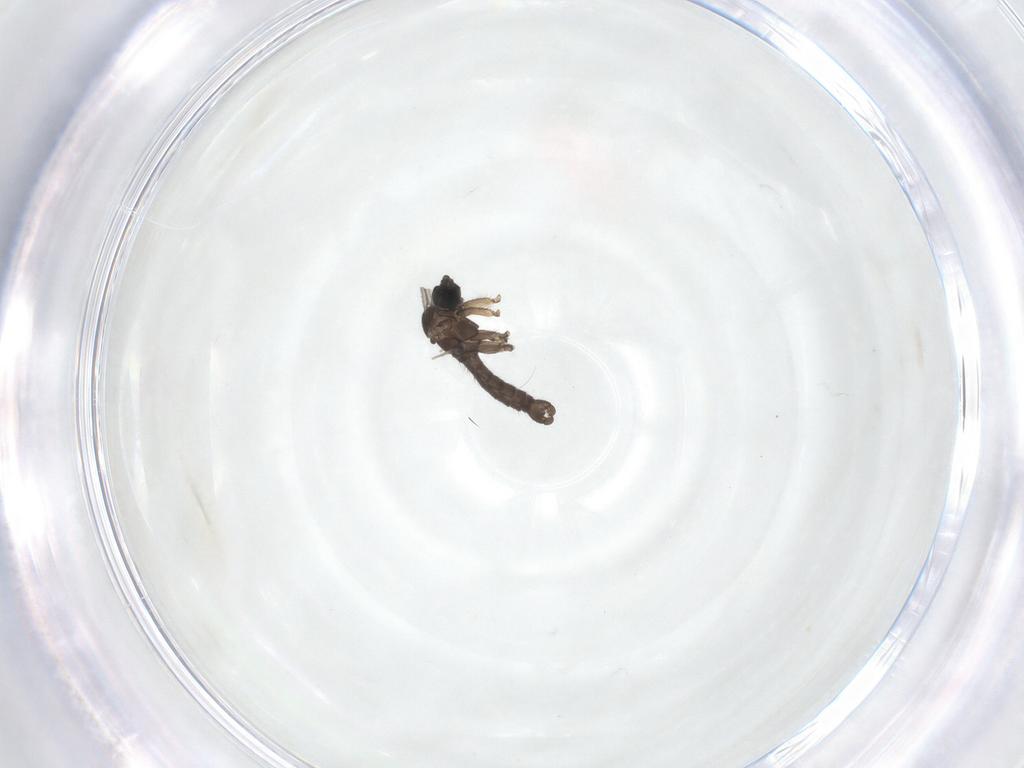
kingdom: Animalia
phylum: Arthropoda
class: Insecta
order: Diptera
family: Sciaridae
